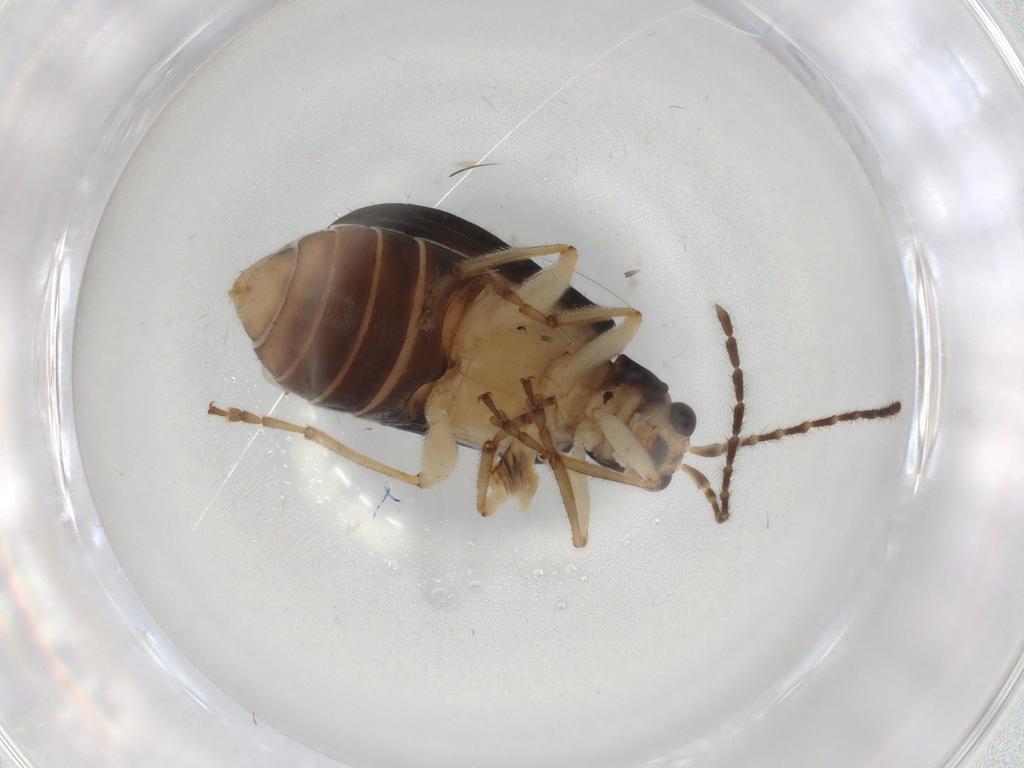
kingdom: Animalia
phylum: Arthropoda
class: Insecta
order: Coleoptera
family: Chrysomelidae
